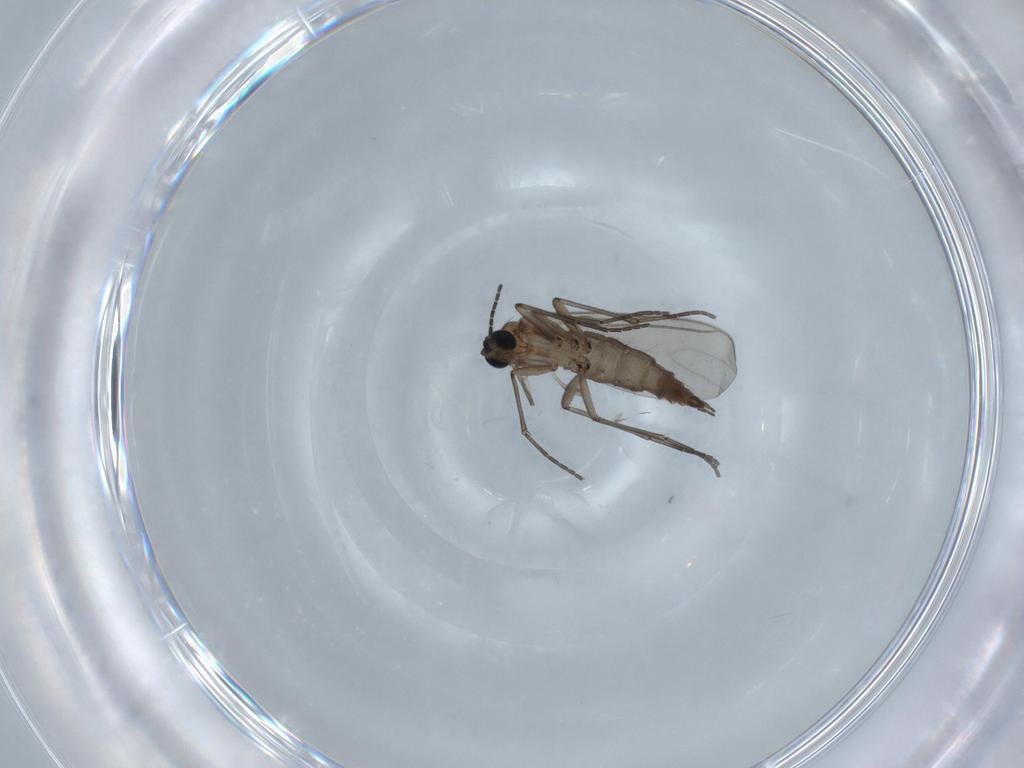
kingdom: Animalia
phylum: Arthropoda
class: Insecta
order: Diptera
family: Sciaridae
